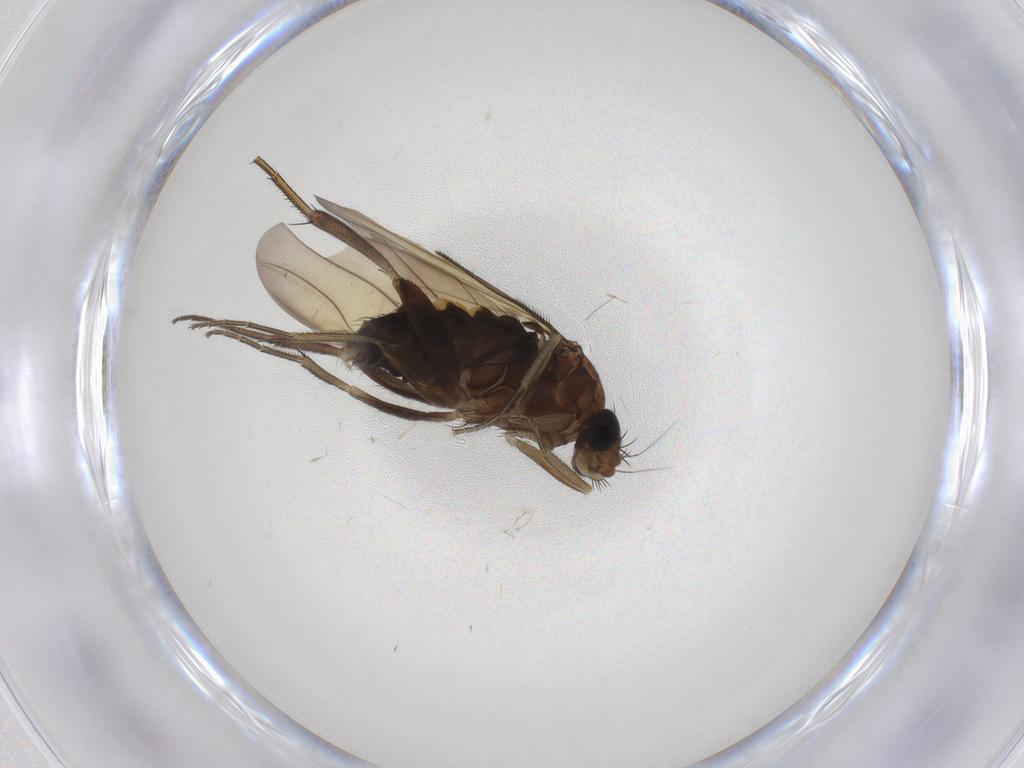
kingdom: Animalia
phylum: Arthropoda
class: Insecta
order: Diptera
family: Phoridae
